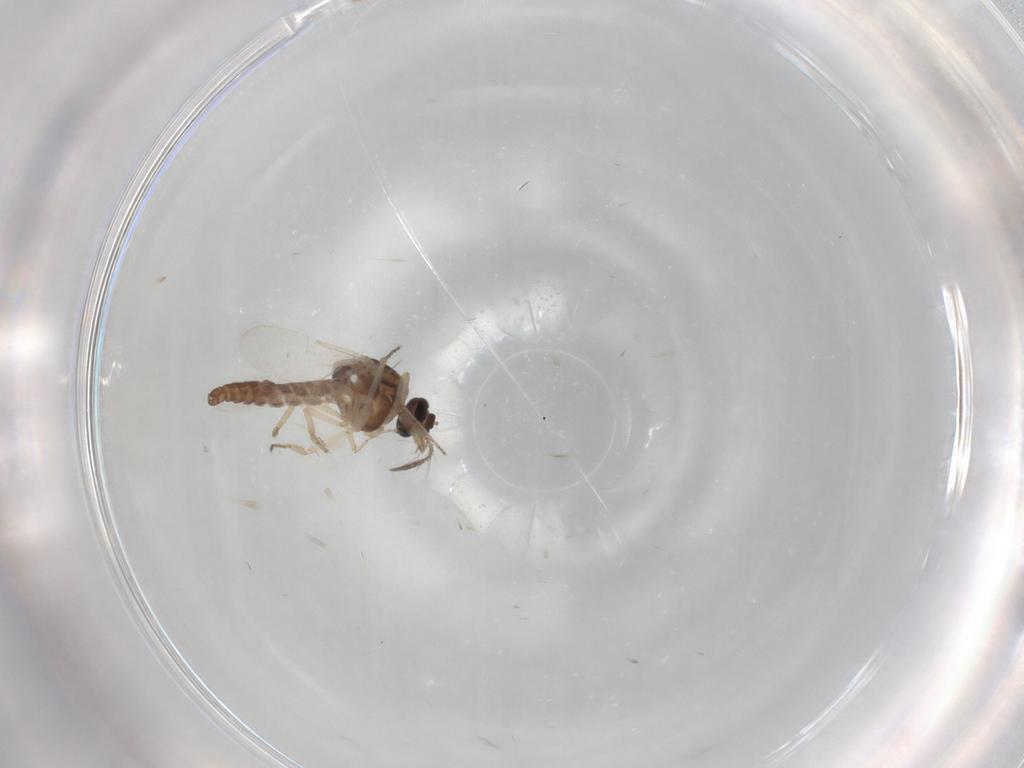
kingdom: Animalia
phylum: Arthropoda
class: Insecta
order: Diptera
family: Ceratopogonidae
